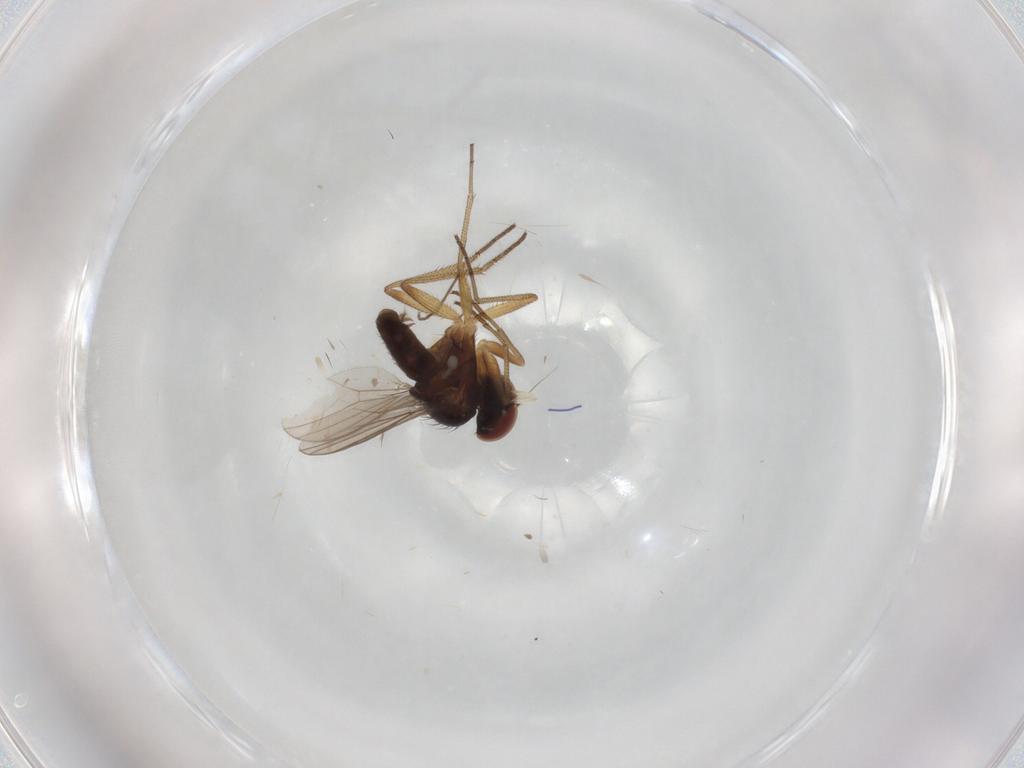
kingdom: Animalia
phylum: Arthropoda
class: Insecta
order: Diptera
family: Dolichopodidae
